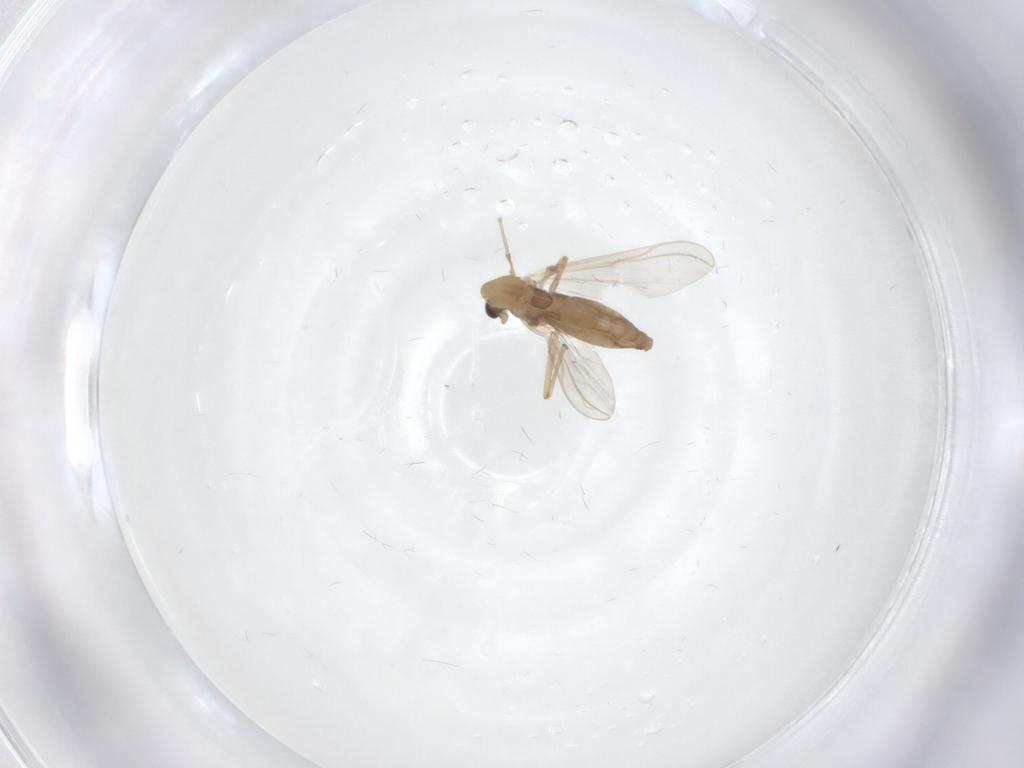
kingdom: Animalia
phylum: Arthropoda
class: Insecta
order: Diptera
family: Chironomidae
